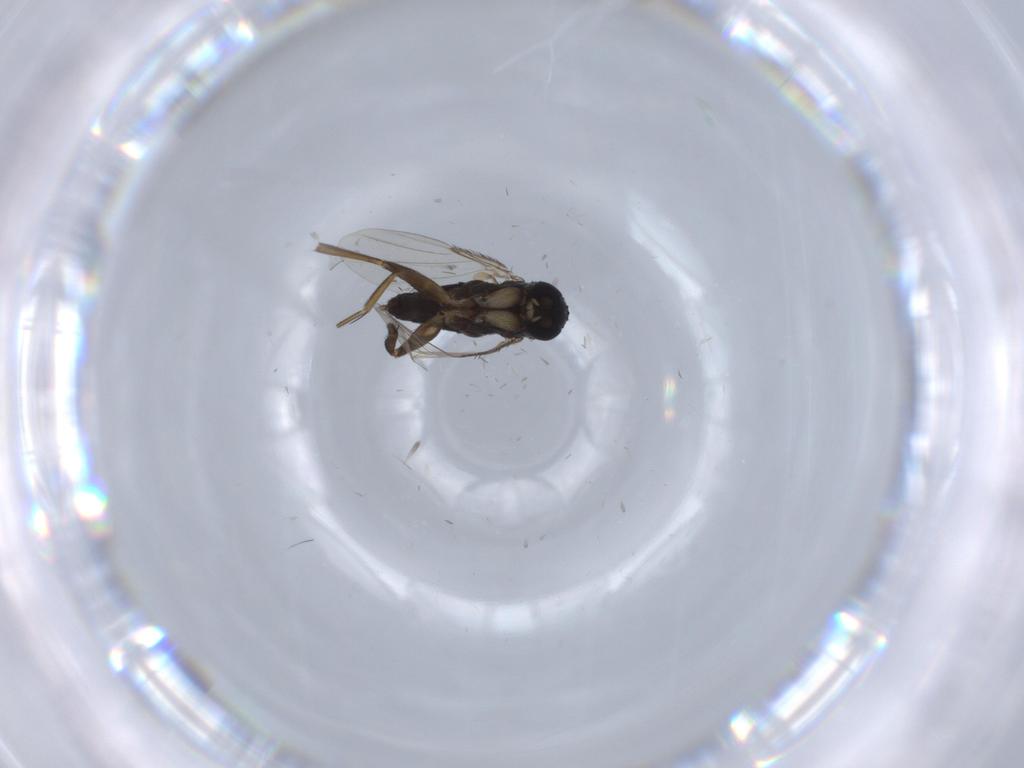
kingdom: Animalia
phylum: Arthropoda
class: Insecta
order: Diptera
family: Phoridae
